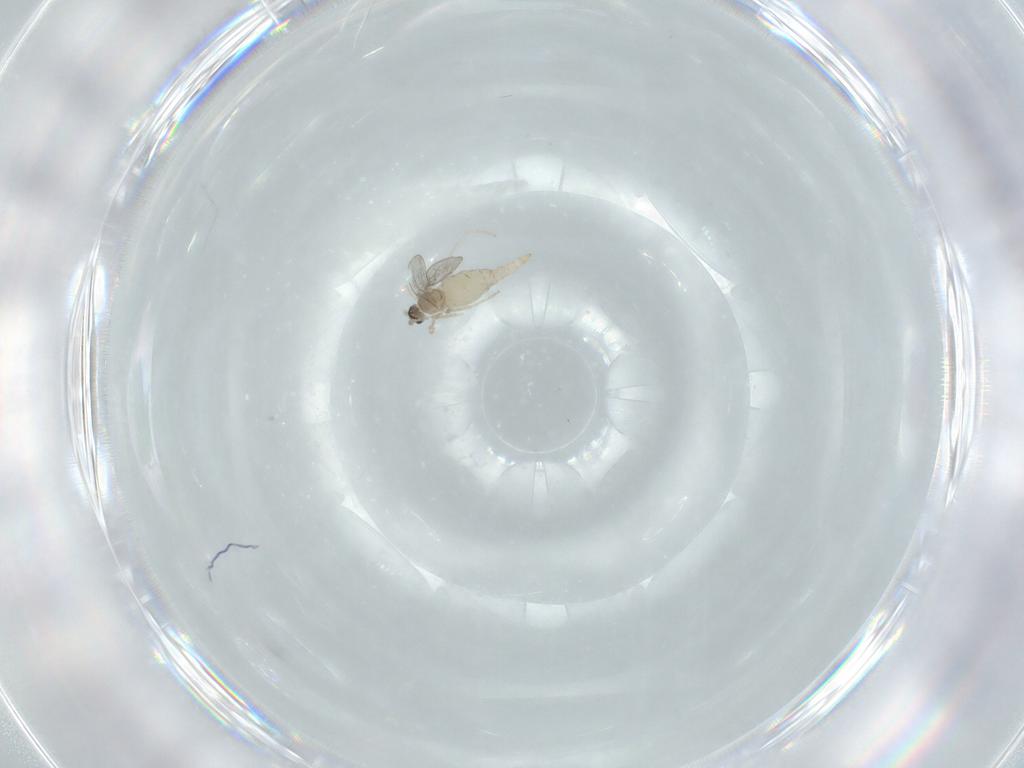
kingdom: Animalia
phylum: Arthropoda
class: Insecta
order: Diptera
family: Cecidomyiidae
